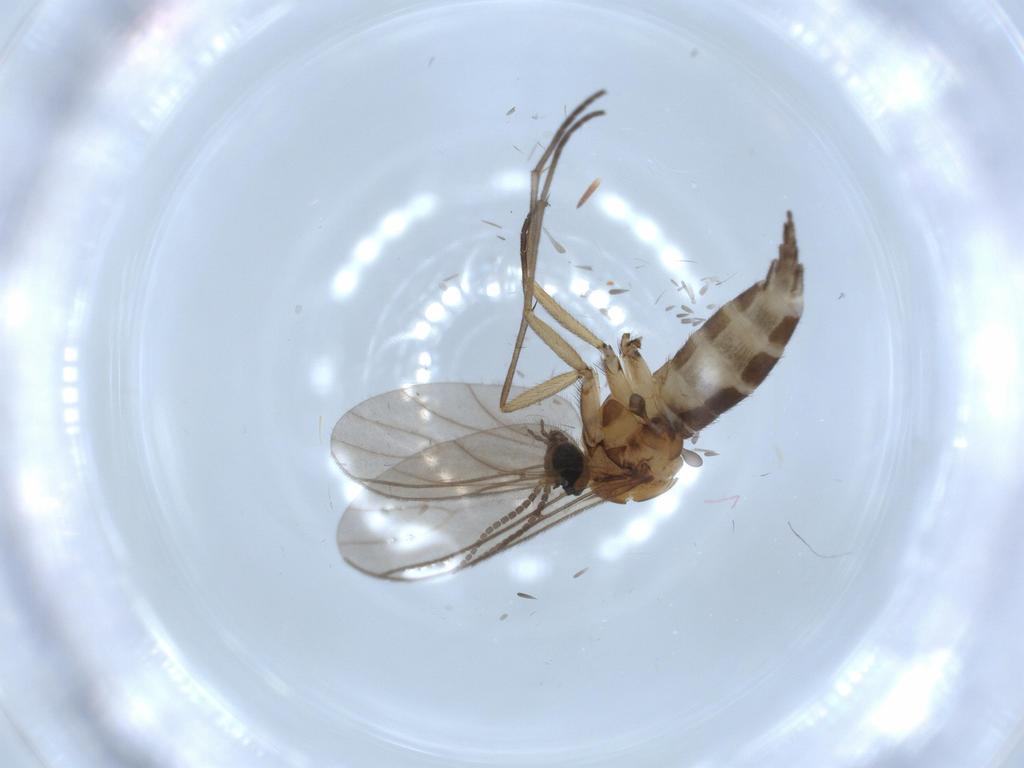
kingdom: Animalia
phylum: Arthropoda
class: Insecta
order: Diptera
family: Sciaridae
